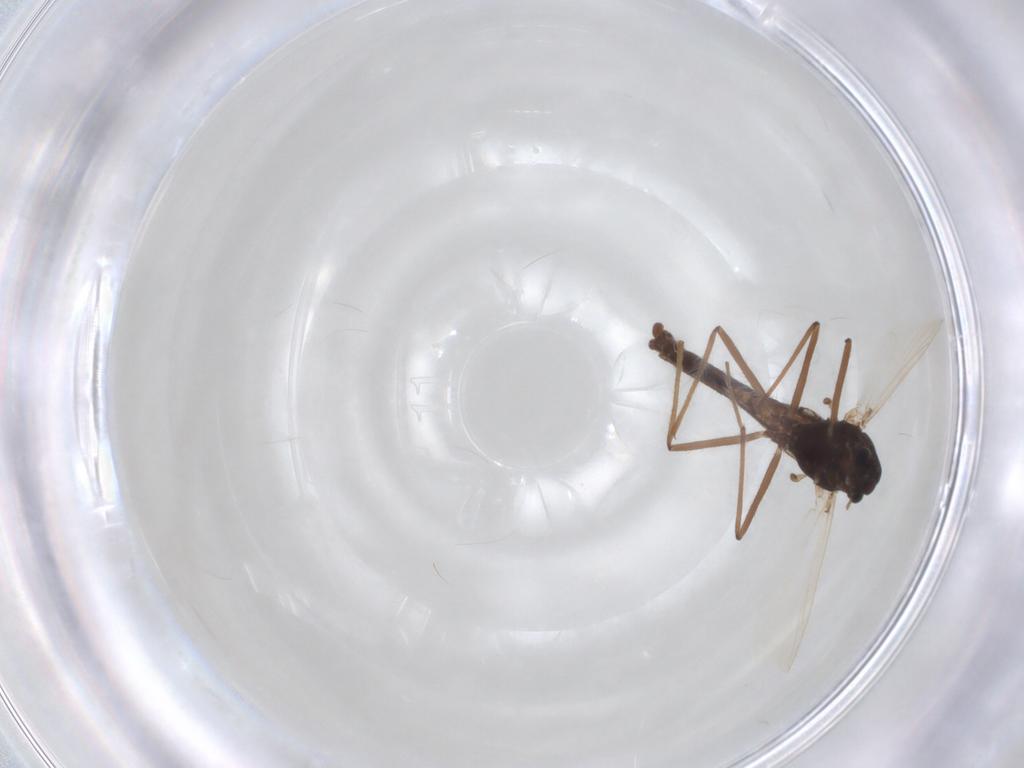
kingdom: Animalia
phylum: Arthropoda
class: Insecta
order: Diptera
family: Chironomidae
